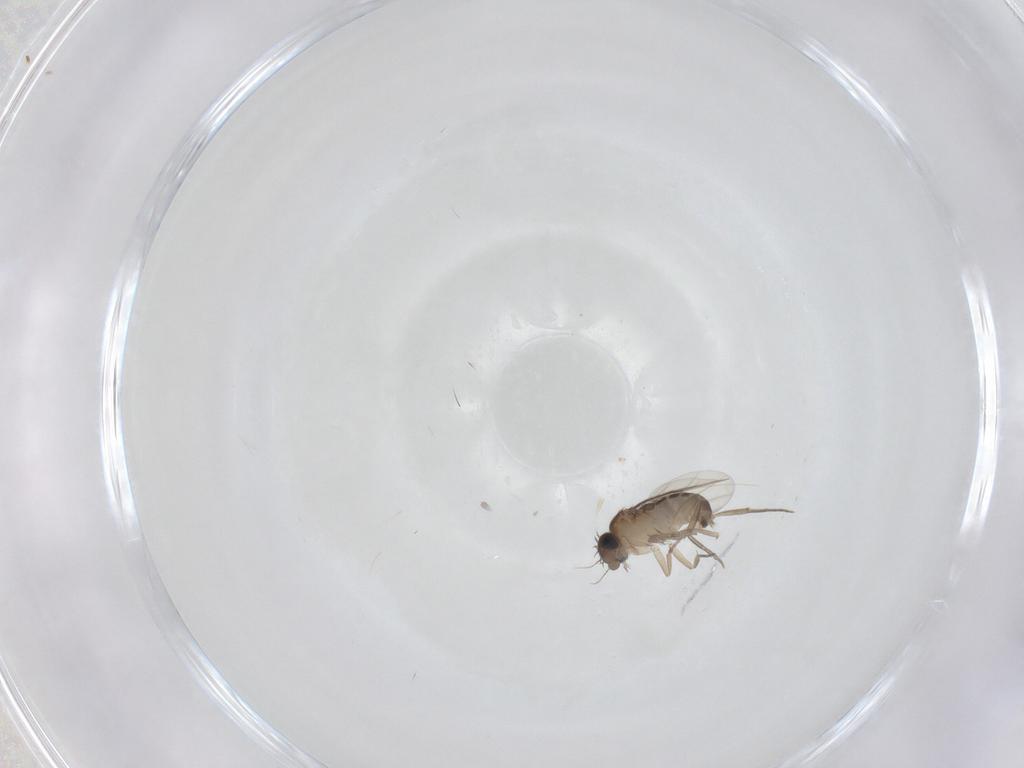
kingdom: Animalia
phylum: Arthropoda
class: Insecta
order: Diptera
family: Phoridae
